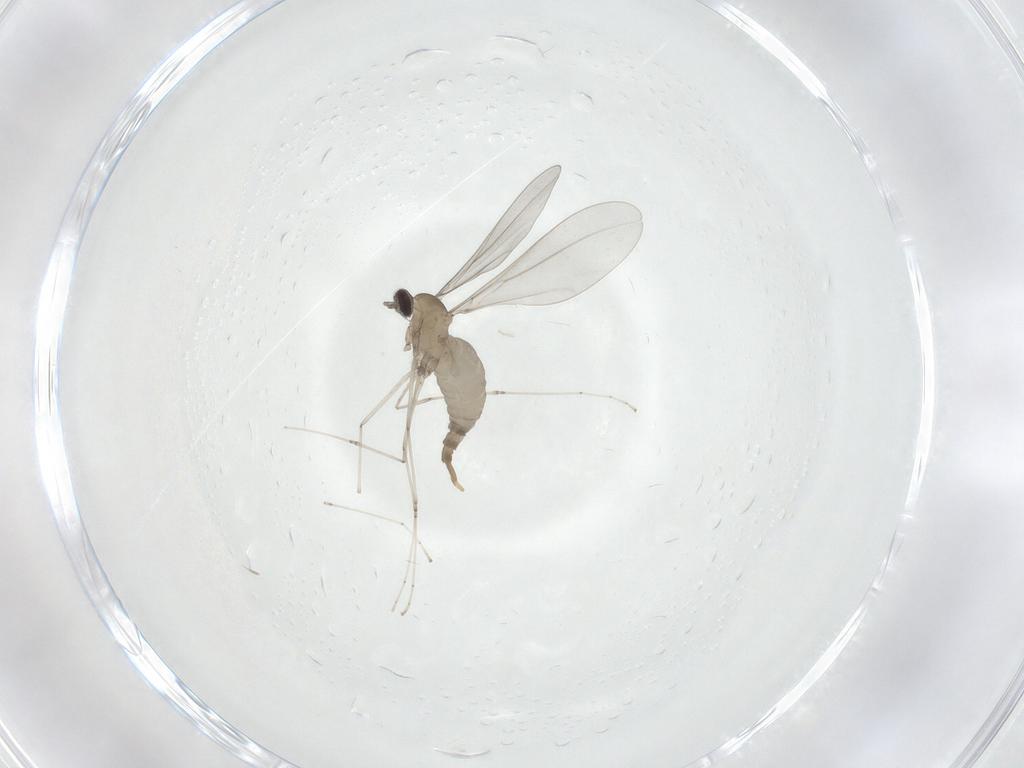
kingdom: Animalia
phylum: Arthropoda
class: Insecta
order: Diptera
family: Cecidomyiidae
